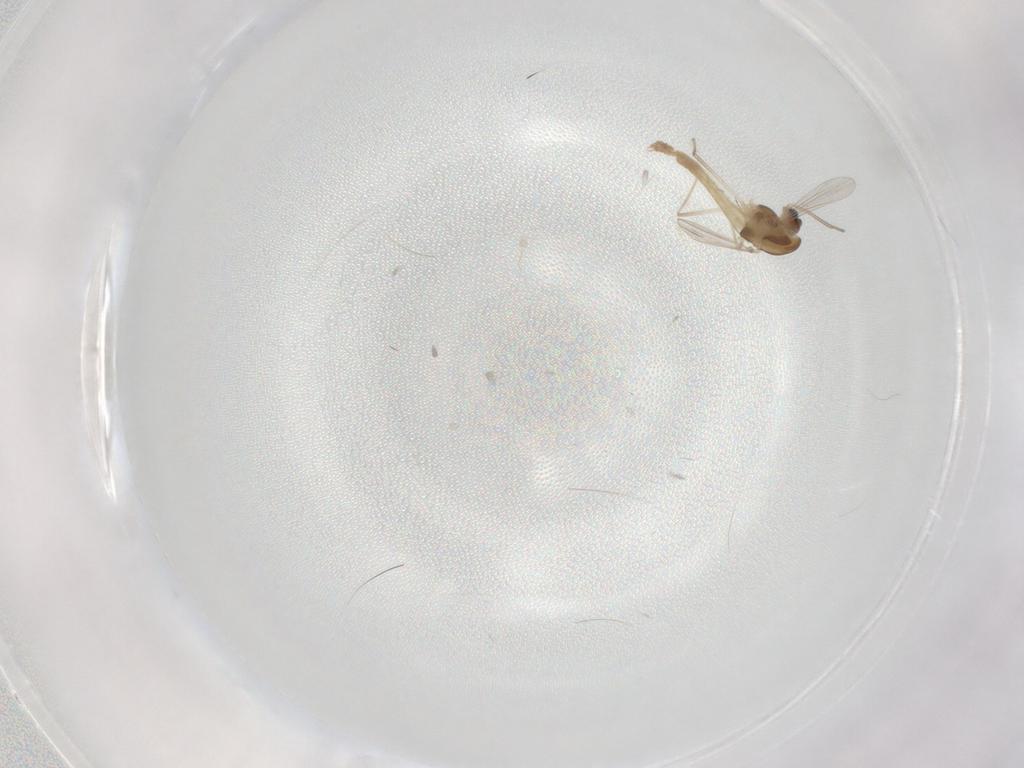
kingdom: Animalia
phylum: Arthropoda
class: Insecta
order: Diptera
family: Chironomidae
